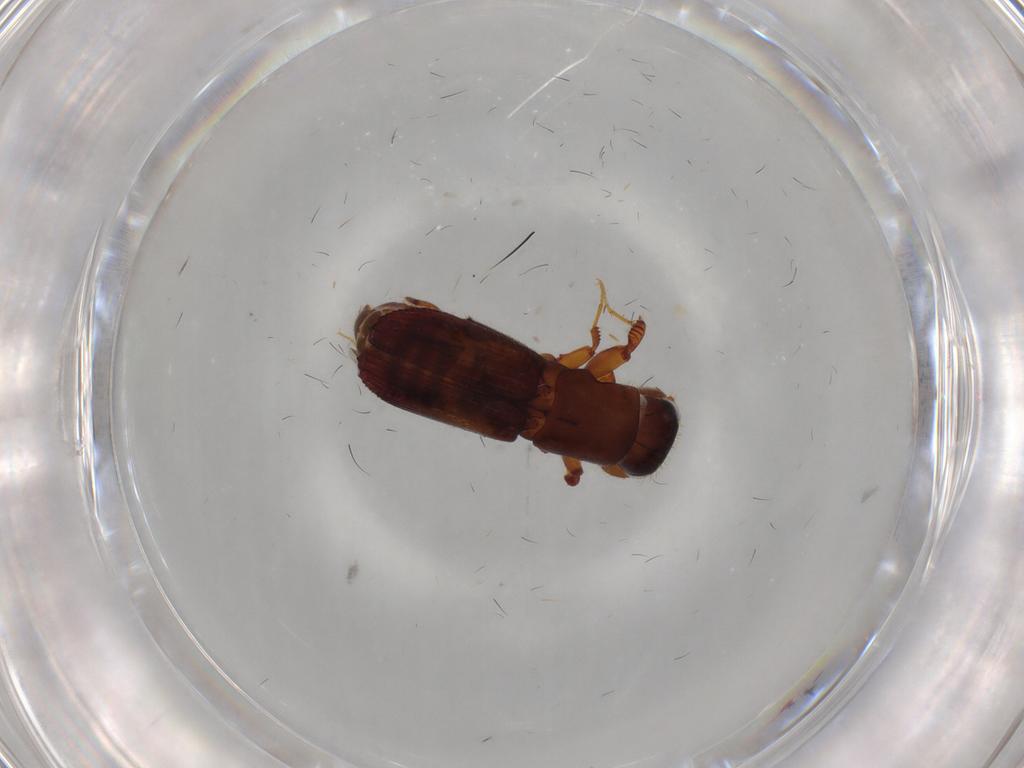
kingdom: Animalia
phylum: Arthropoda
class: Insecta
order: Coleoptera
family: Curculionidae
